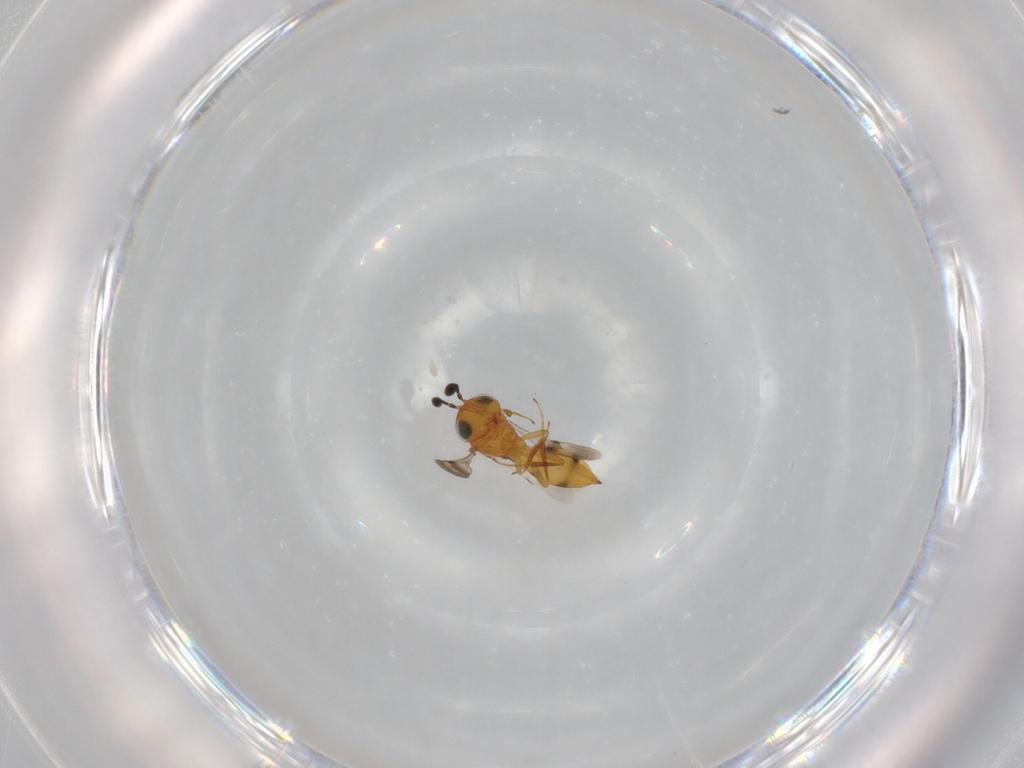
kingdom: Animalia
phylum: Arthropoda
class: Insecta
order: Hymenoptera
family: Scelionidae
